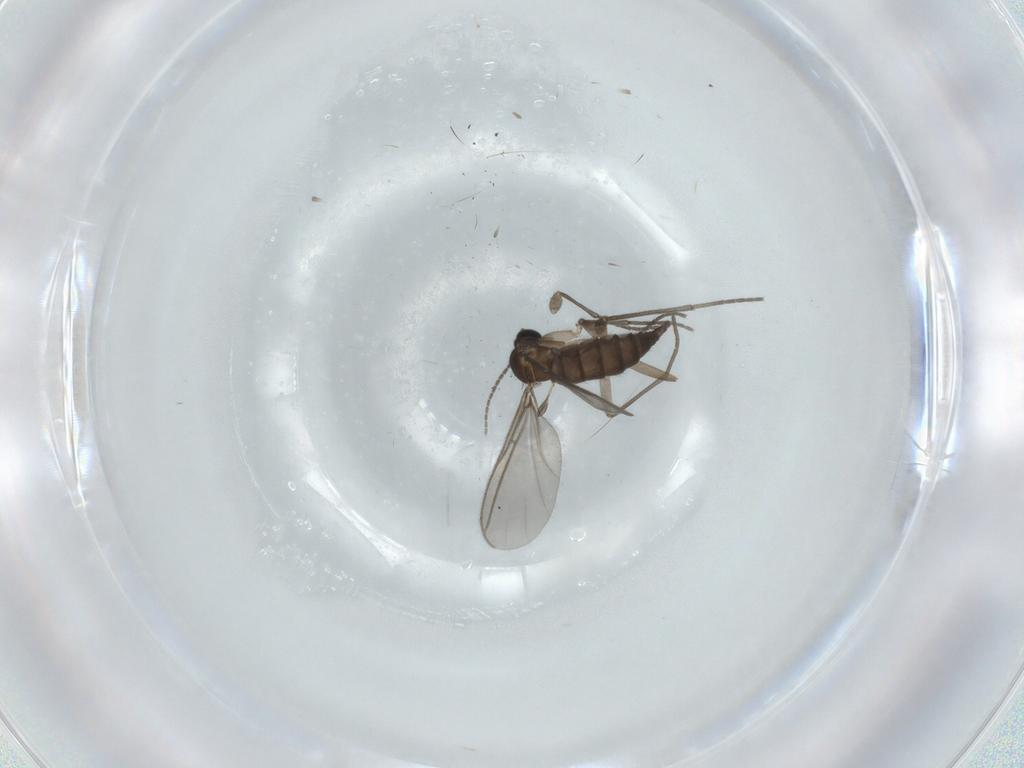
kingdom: Animalia
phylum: Arthropoda
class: Insecta
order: Diptera
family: Sciaridae
